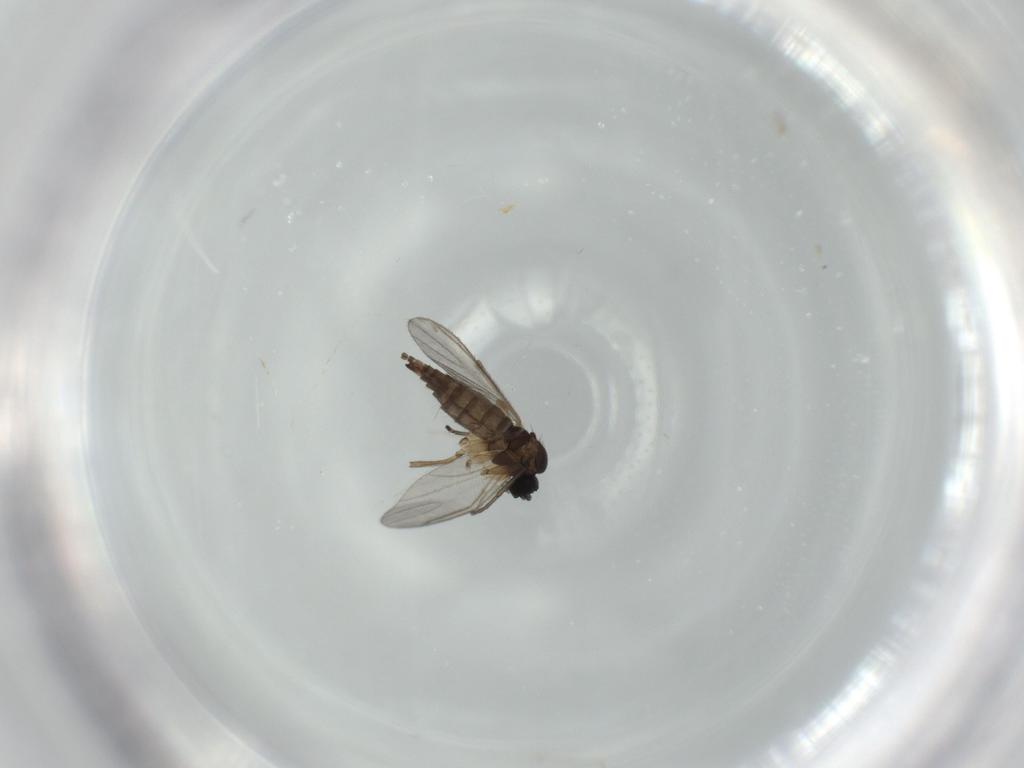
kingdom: Animalia
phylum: Arthropoda
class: Insecta
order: Diptera
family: Sciaridae
